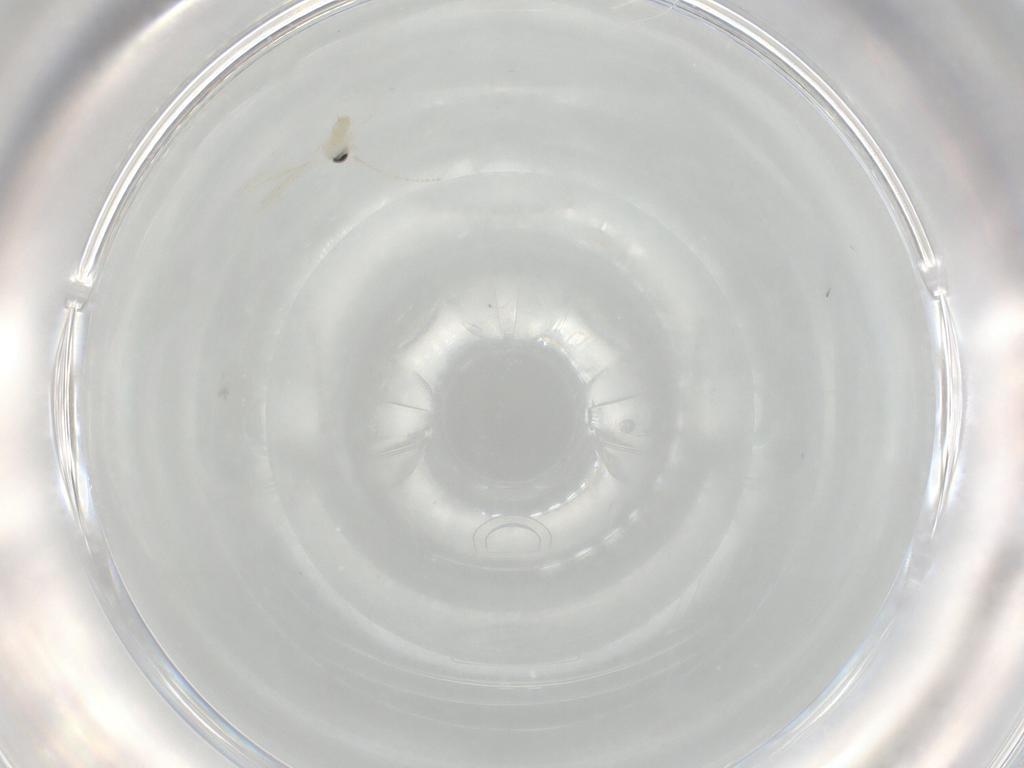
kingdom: Animalia
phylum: Arthropoda
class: Insecta
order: Diptera
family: Cecidomyiidae
